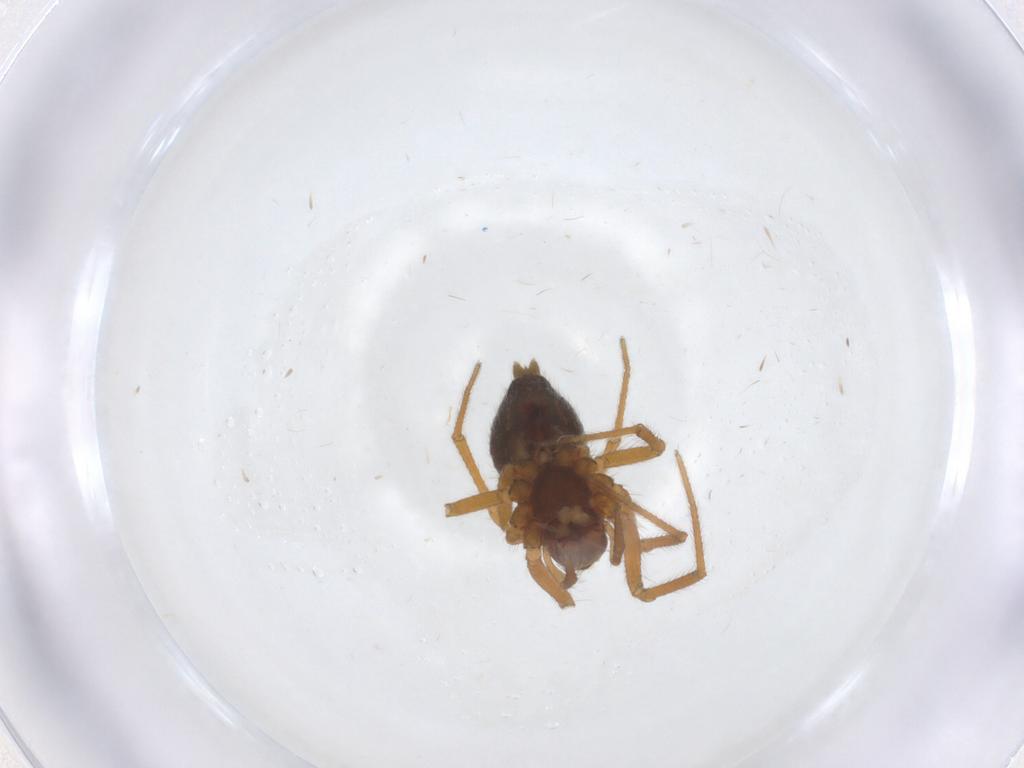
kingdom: Animalia
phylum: Arthropoda
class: Arachnida
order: Araneae
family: Linyphiidae
